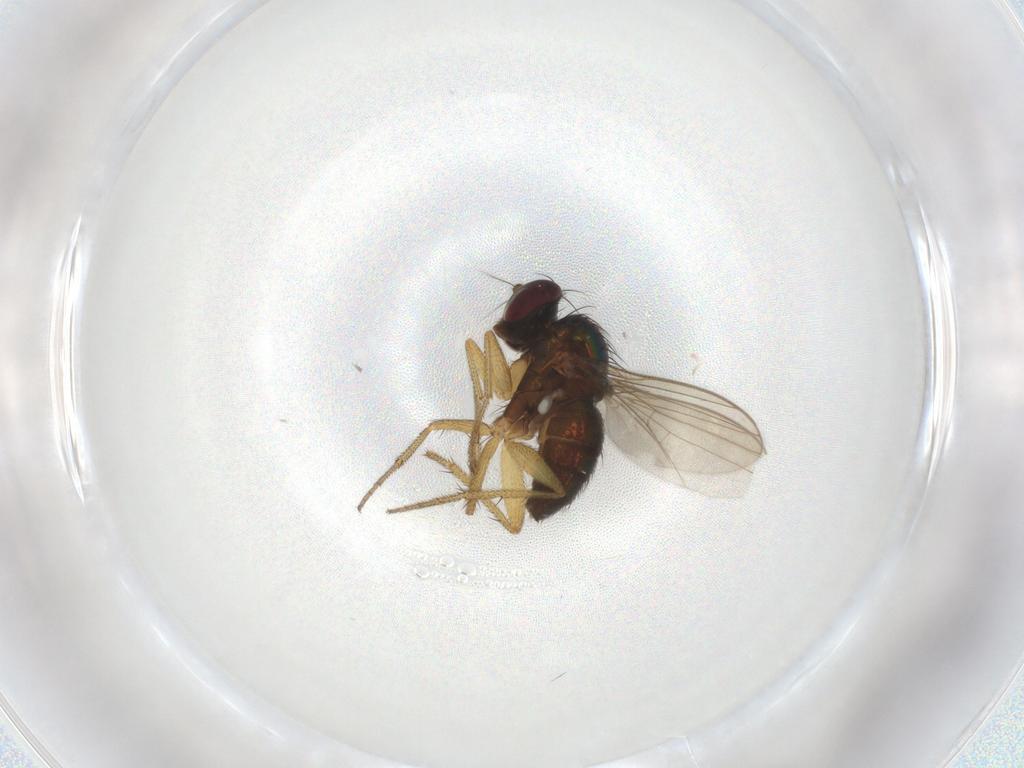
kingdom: Animalia
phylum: Arthropoda
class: Insecta
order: Diptera
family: Dolichopodidae
